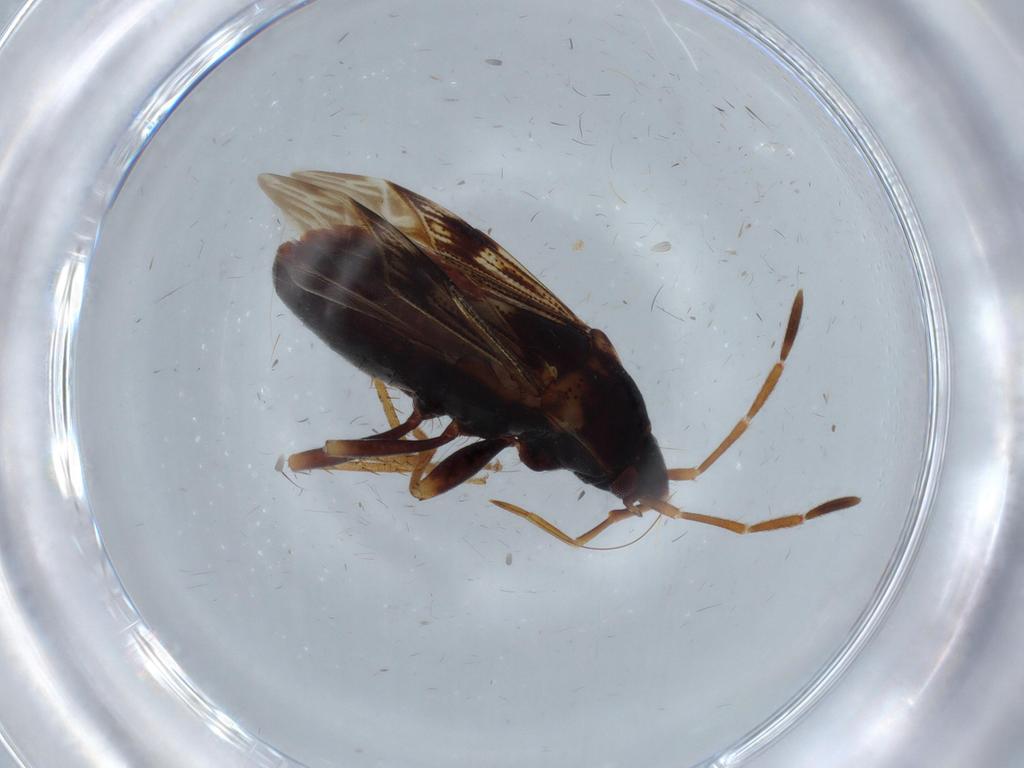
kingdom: Animalia
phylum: Arthropoda
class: Insecta
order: Hemiptera
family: Rhyparochromidae
